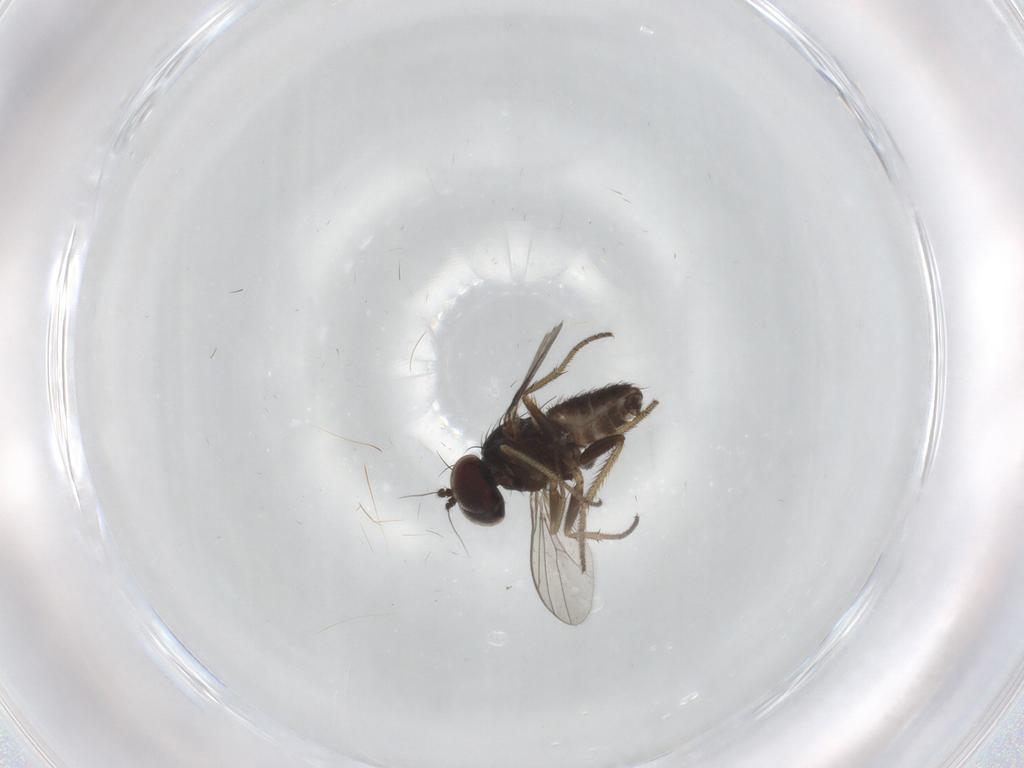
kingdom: Animalia
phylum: Arthropoda
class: Insecta
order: Diptera
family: Dolichopodidae
